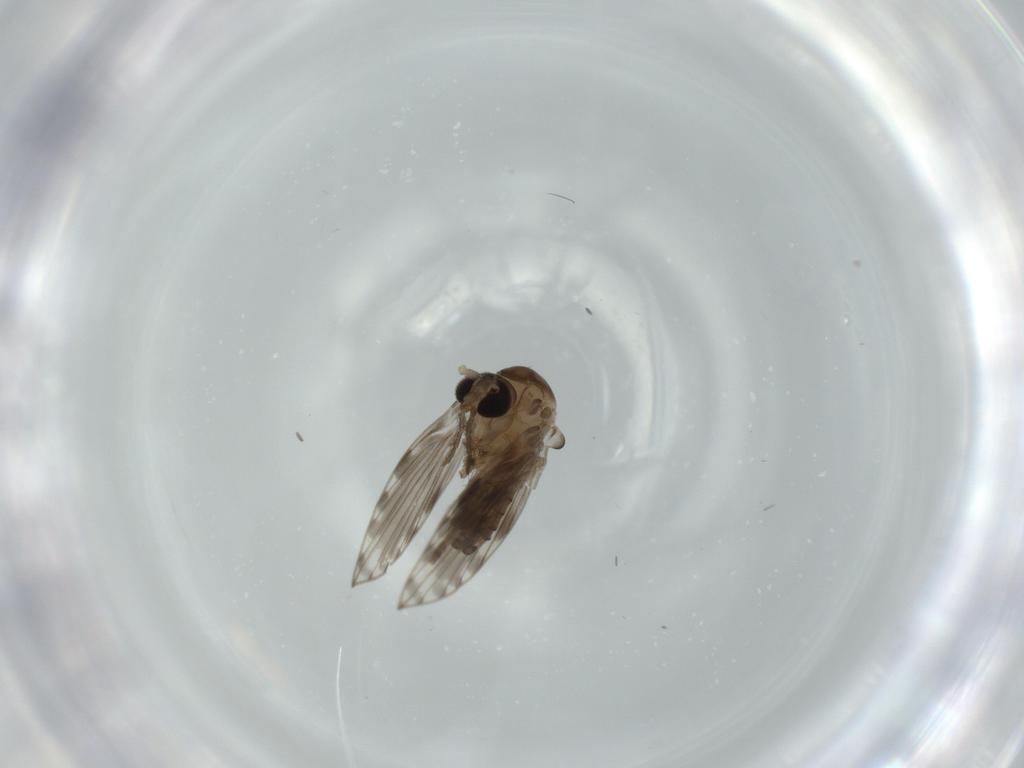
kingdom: Animalia
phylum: Arthropoda
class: Insecta
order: Diptera
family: Psychodidae
